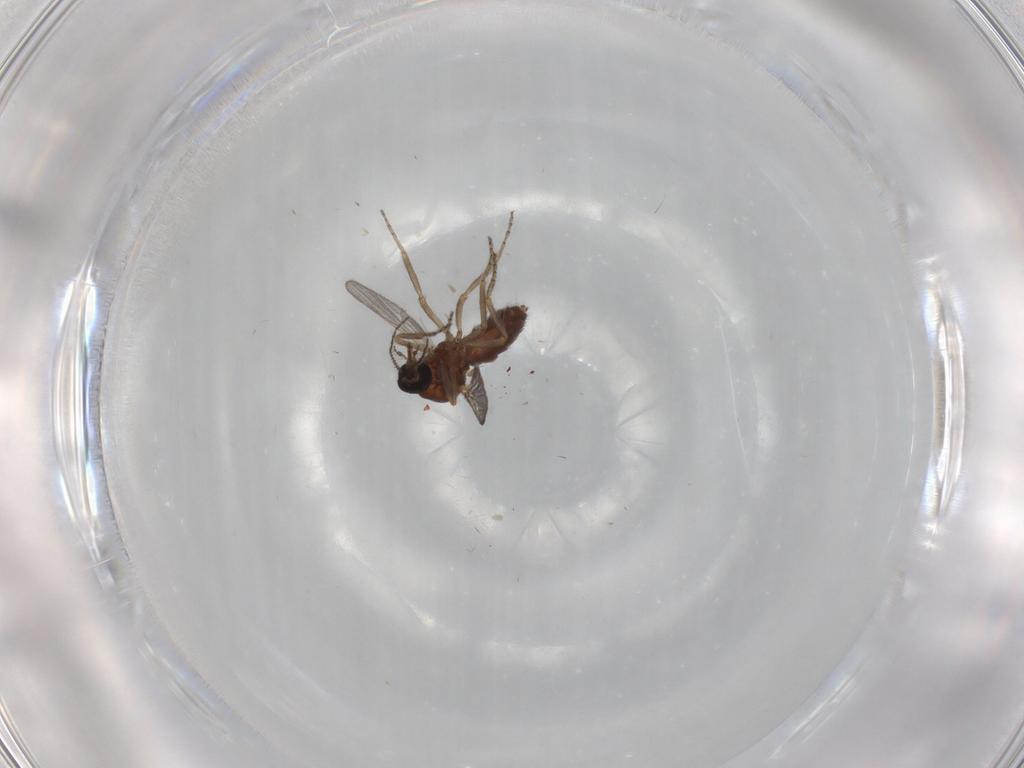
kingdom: Animalia
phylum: Arthropoda
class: Insecta
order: Diptera
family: Ceratopogonidae
